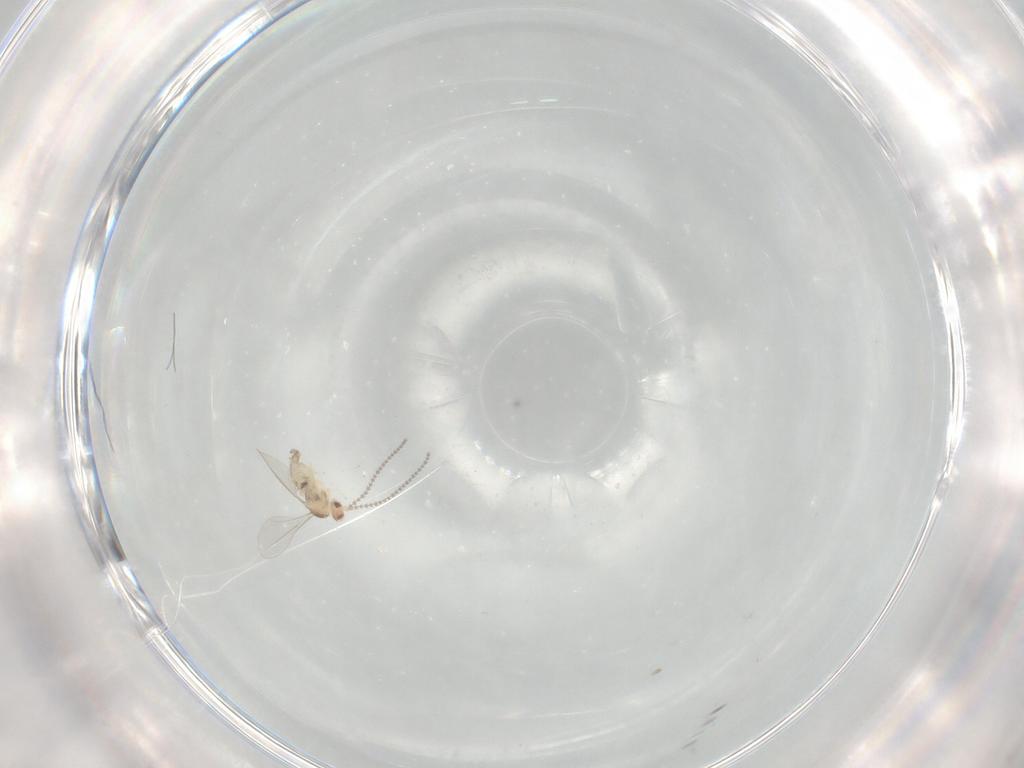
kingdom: Animalia
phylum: Arthropoda
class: Insecta
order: Diptera
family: Cecidomyiidae
